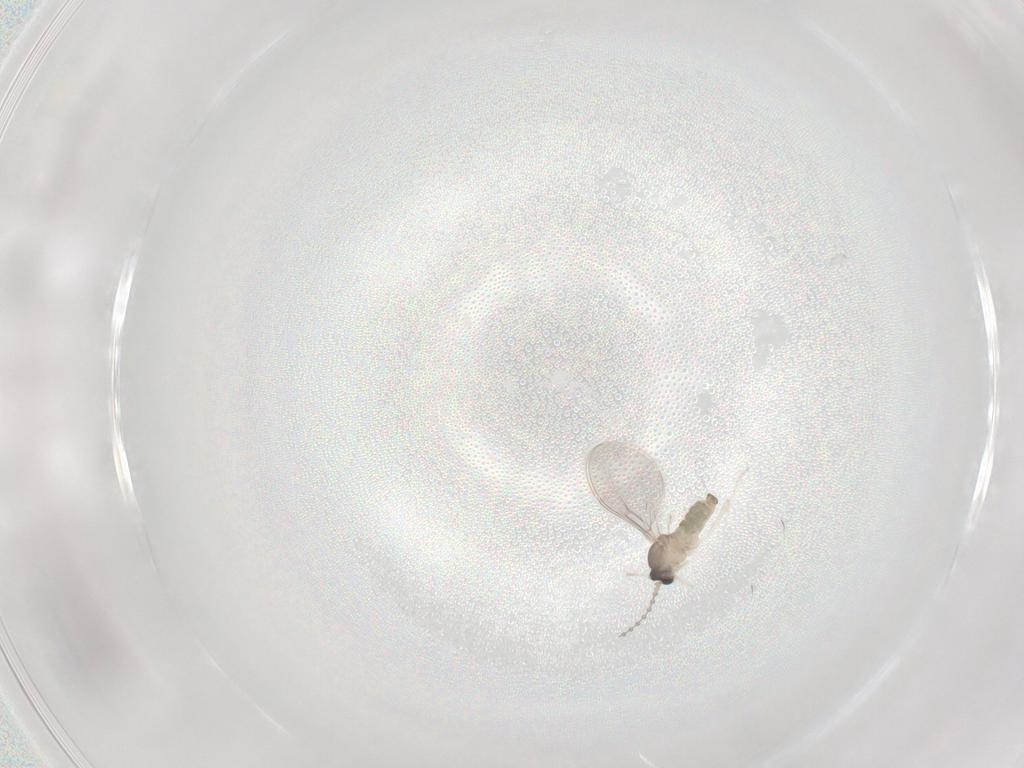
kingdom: Animalia
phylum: Arthropoda
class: Insecta
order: Diptera
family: Cecidomyiidae
